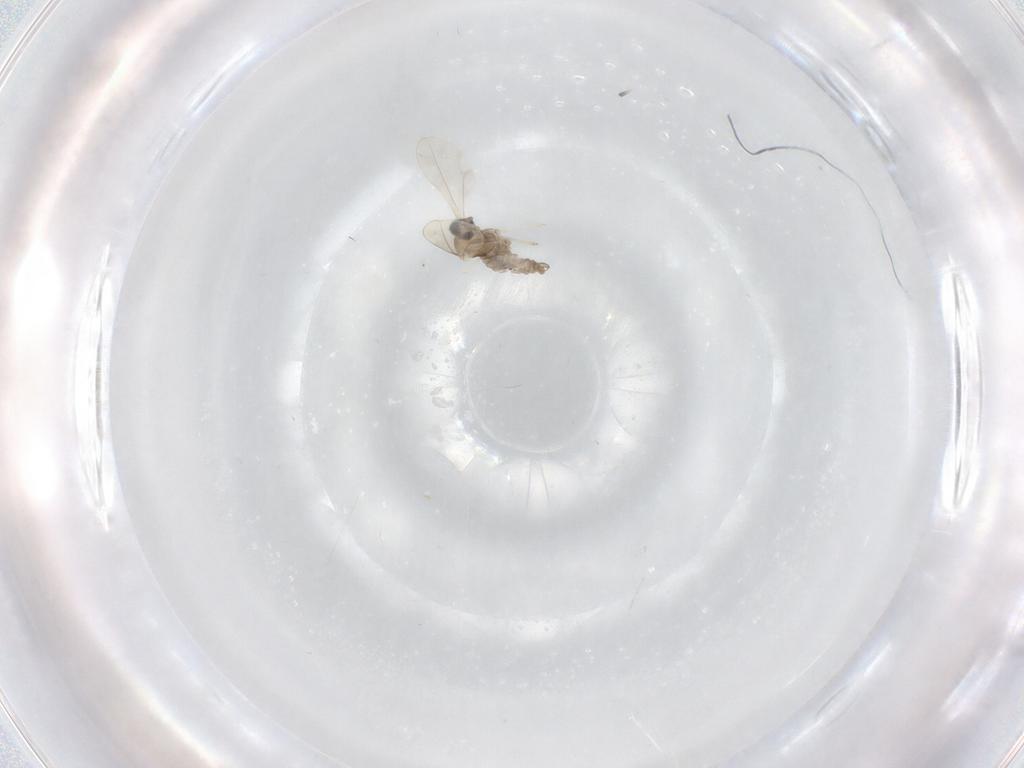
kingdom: Animalia
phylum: Arthropoda
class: Insecta
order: Diptera
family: Cecidomyiidae
